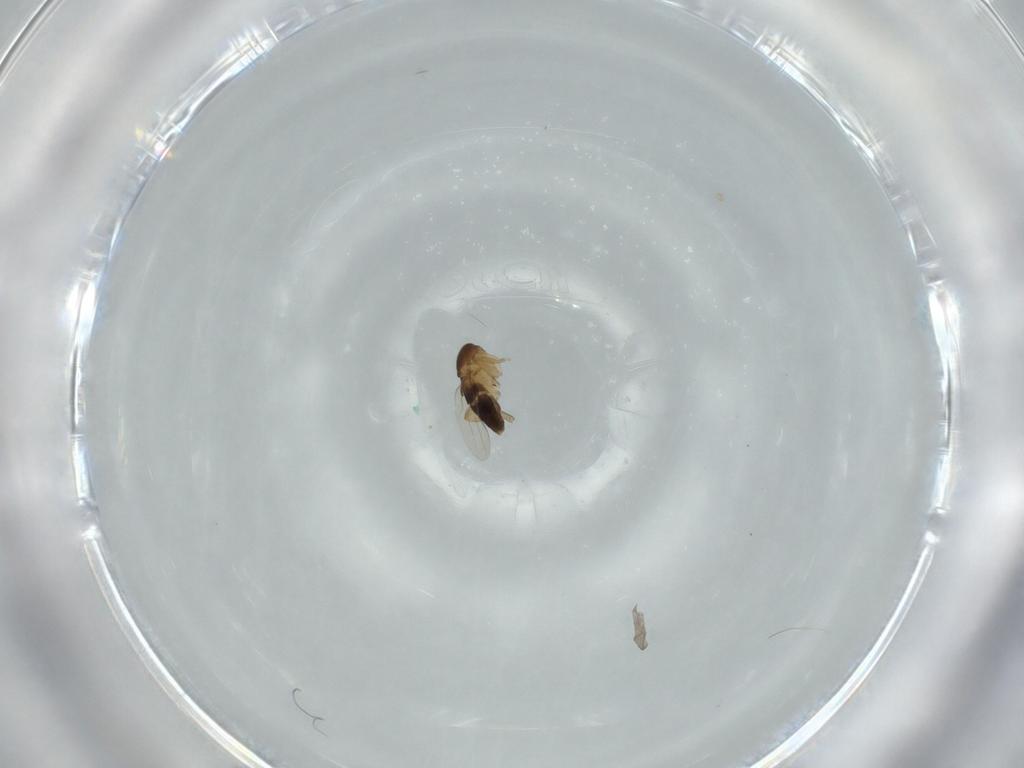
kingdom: Animalia
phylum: Arthropoda
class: Insecta
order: Diptera
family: Phoridae
